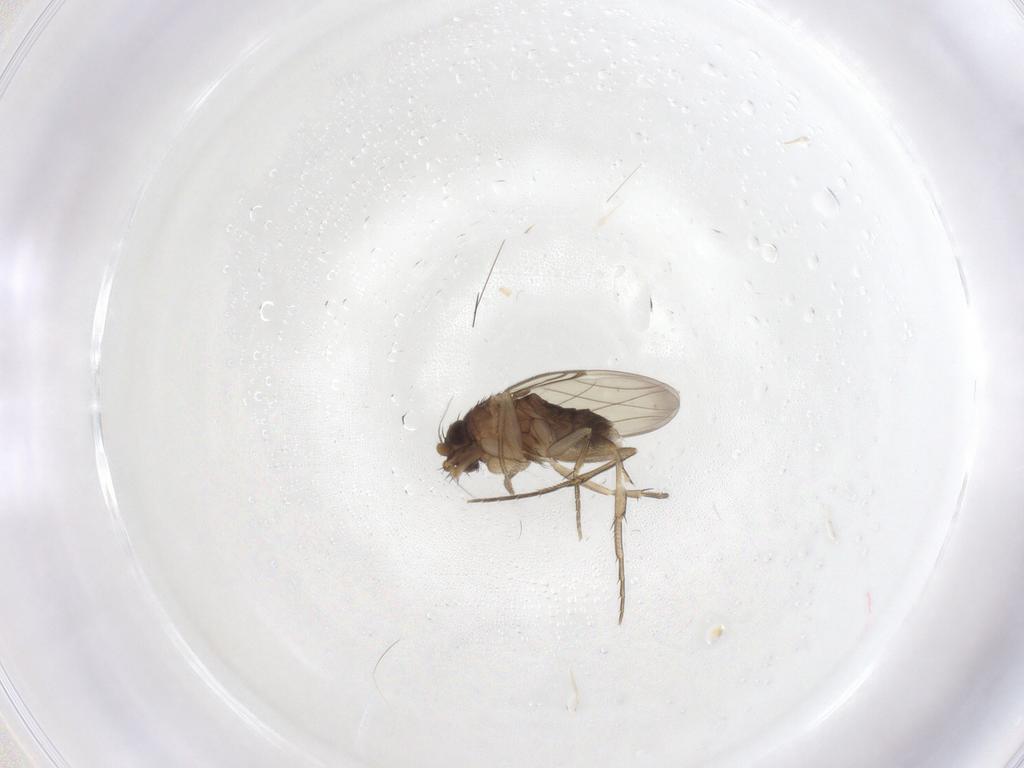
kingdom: Animalia
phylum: Arthropoda
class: Insecta
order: Diptera
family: Phoridae
